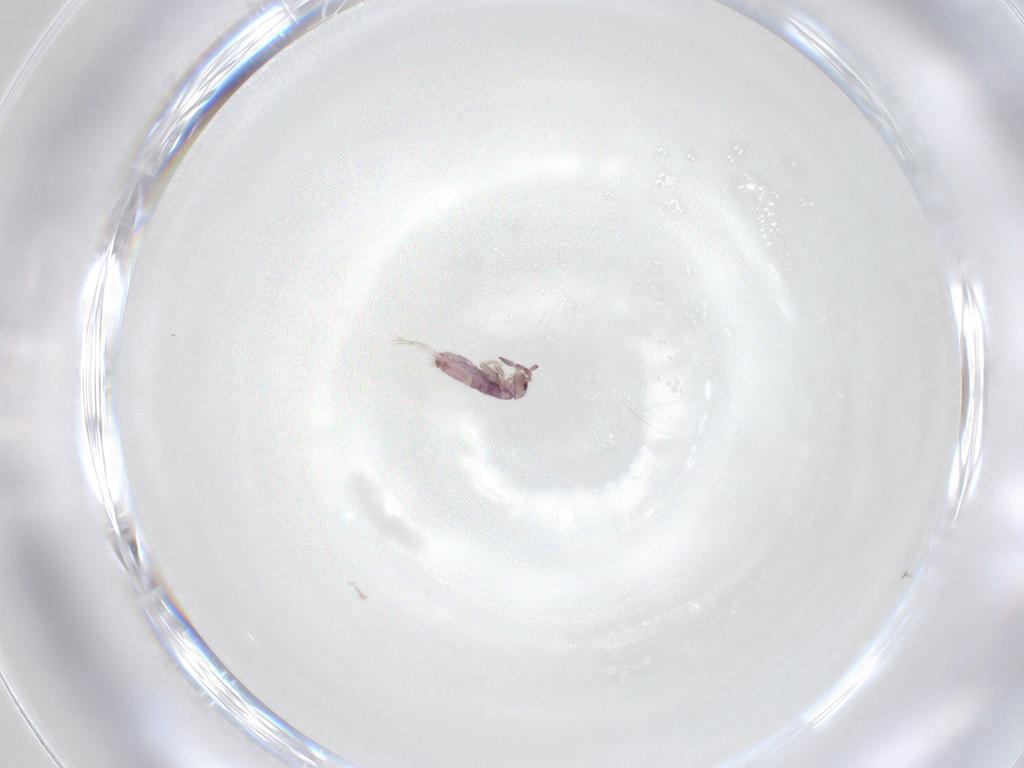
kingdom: Animalia
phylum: Arthropoda
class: Collembola
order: Entomobryomorpha
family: Entomobryidae
